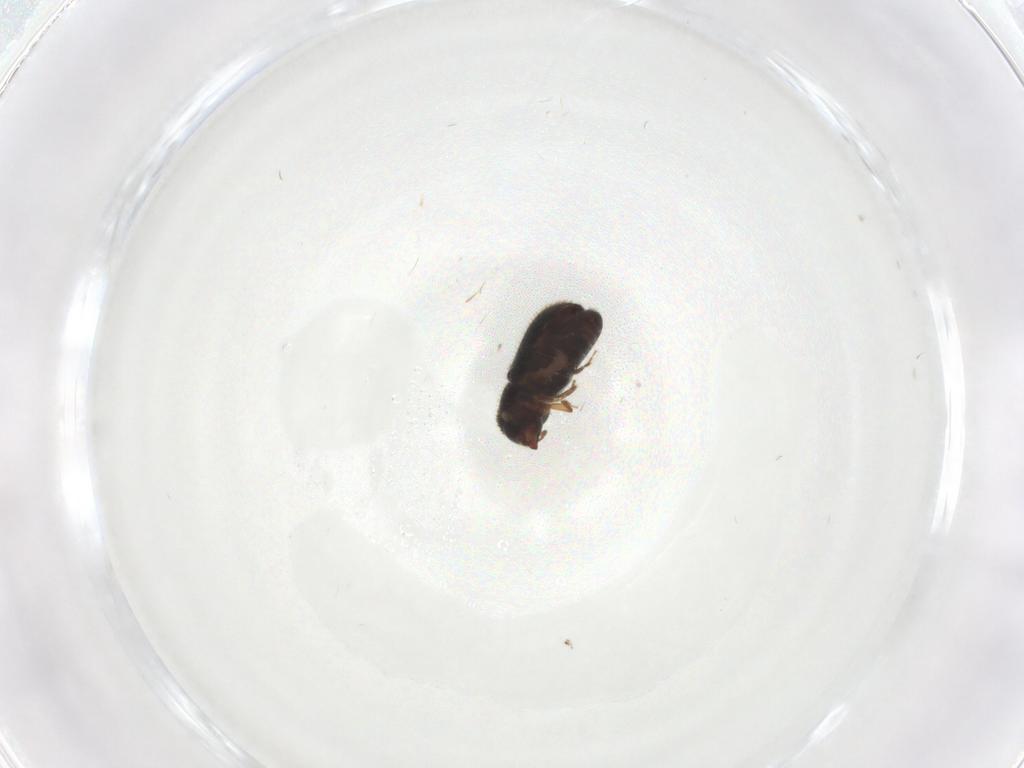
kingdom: Animalia
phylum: Arthropoda
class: Insecta
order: Coleoptera
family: Curculionidae
